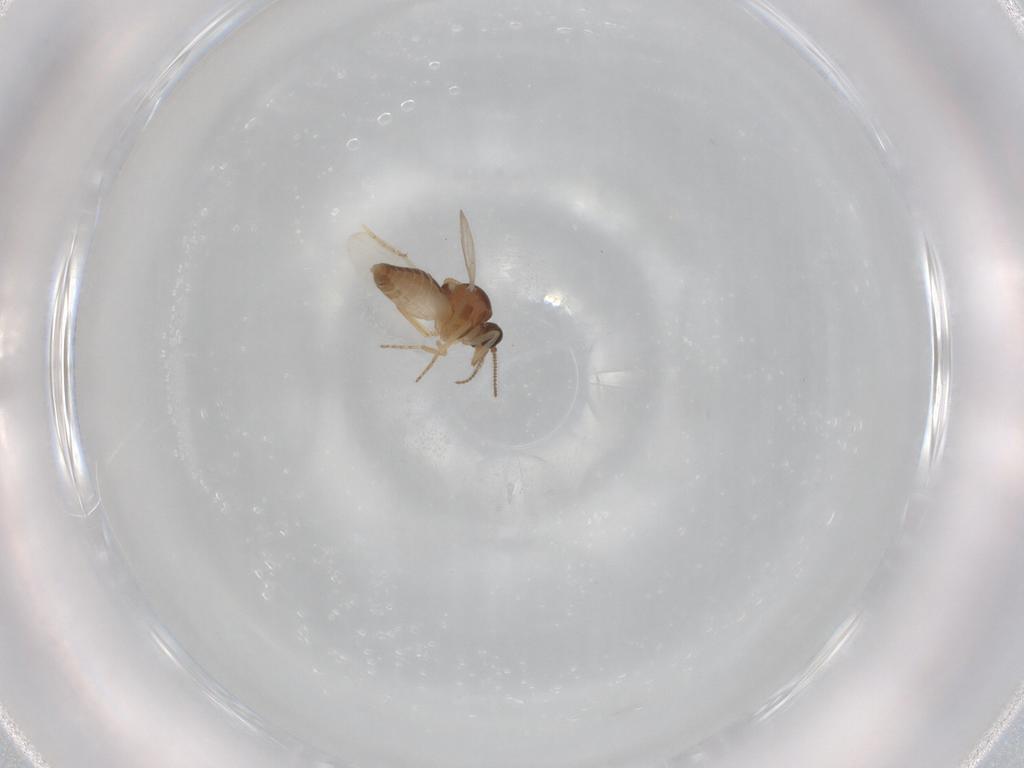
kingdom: Animalia
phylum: Arthropoda
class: Insecta
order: Diptera
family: Ceratopogonidae
